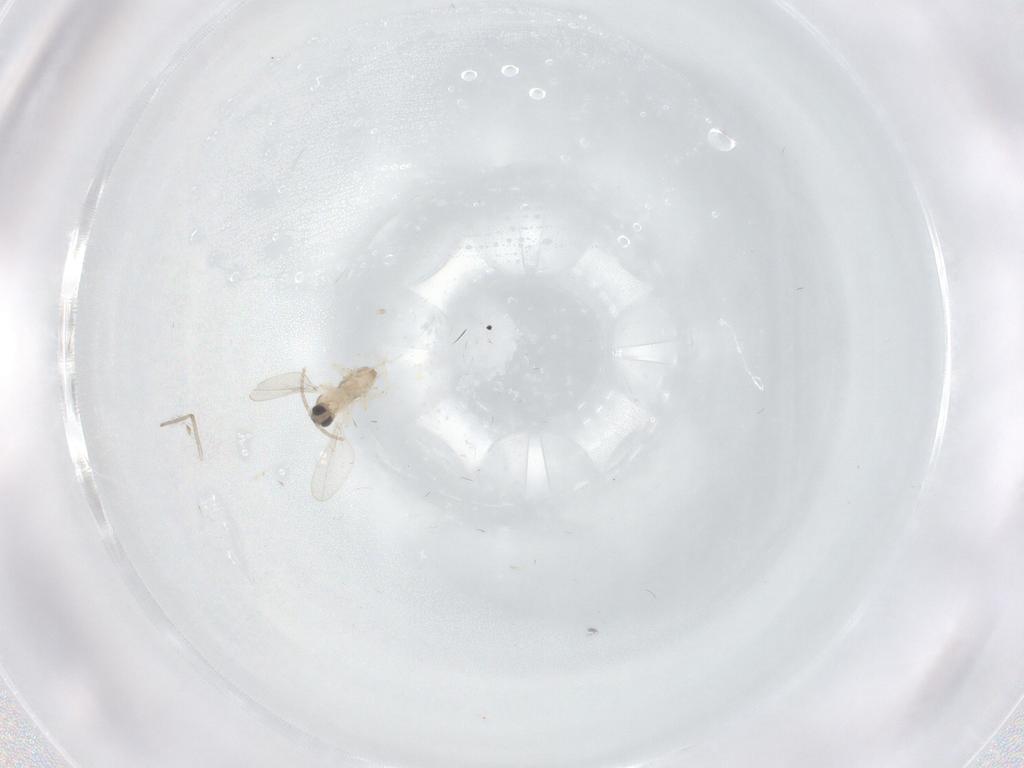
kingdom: Animalia
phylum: Arthropoda
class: Insecta
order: Diptera
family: Cecidomyiidae
